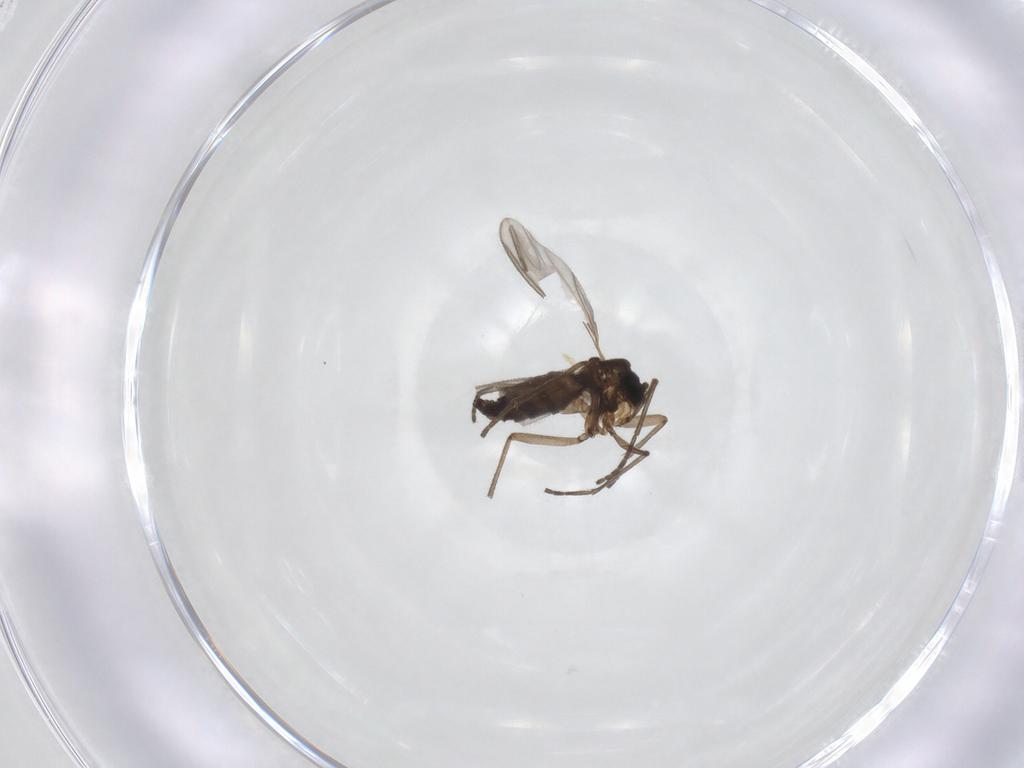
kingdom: Animalia
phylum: Arthropoda
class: Insecta
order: Diptera
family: Sciaridae
